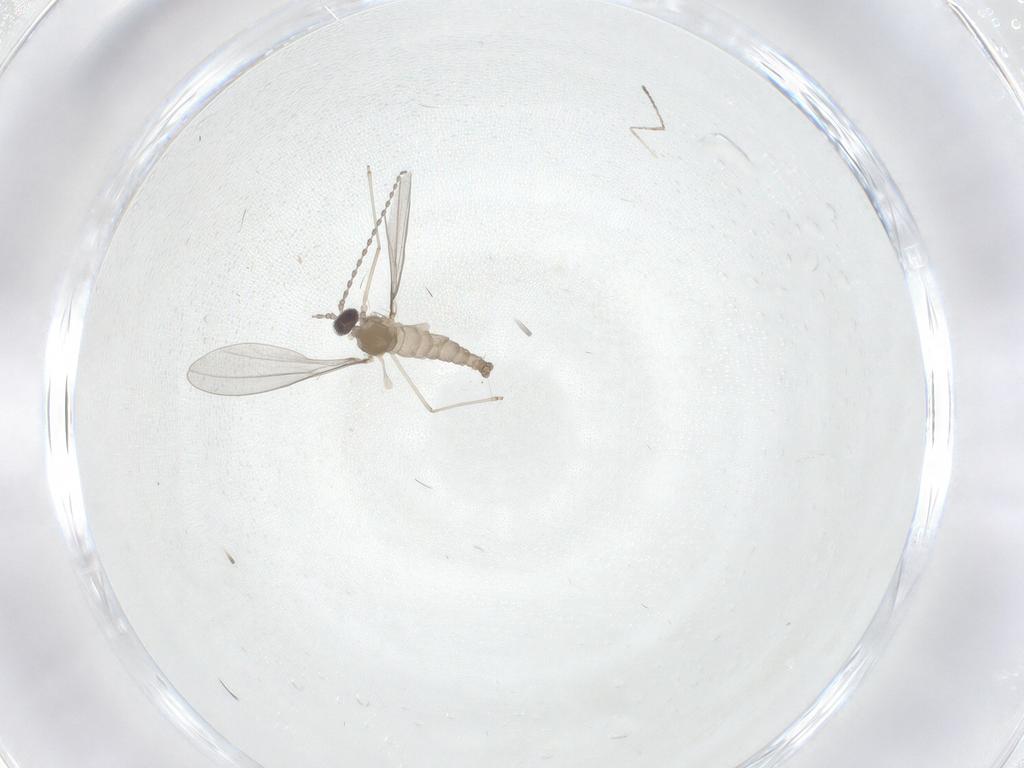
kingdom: Animalia
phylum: Arthropoda
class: Insecta
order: Diptera
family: Cecidomyiidae
